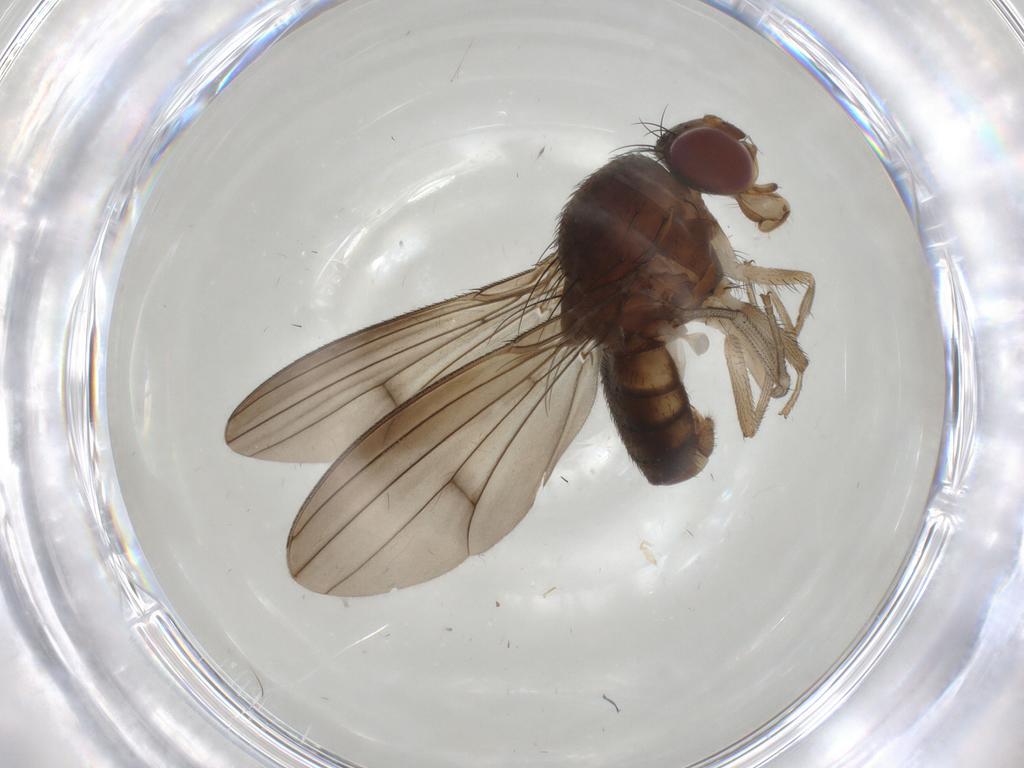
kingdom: Animalia
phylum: Arthropoda
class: Insecta
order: Diptera
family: Curtonotidae
